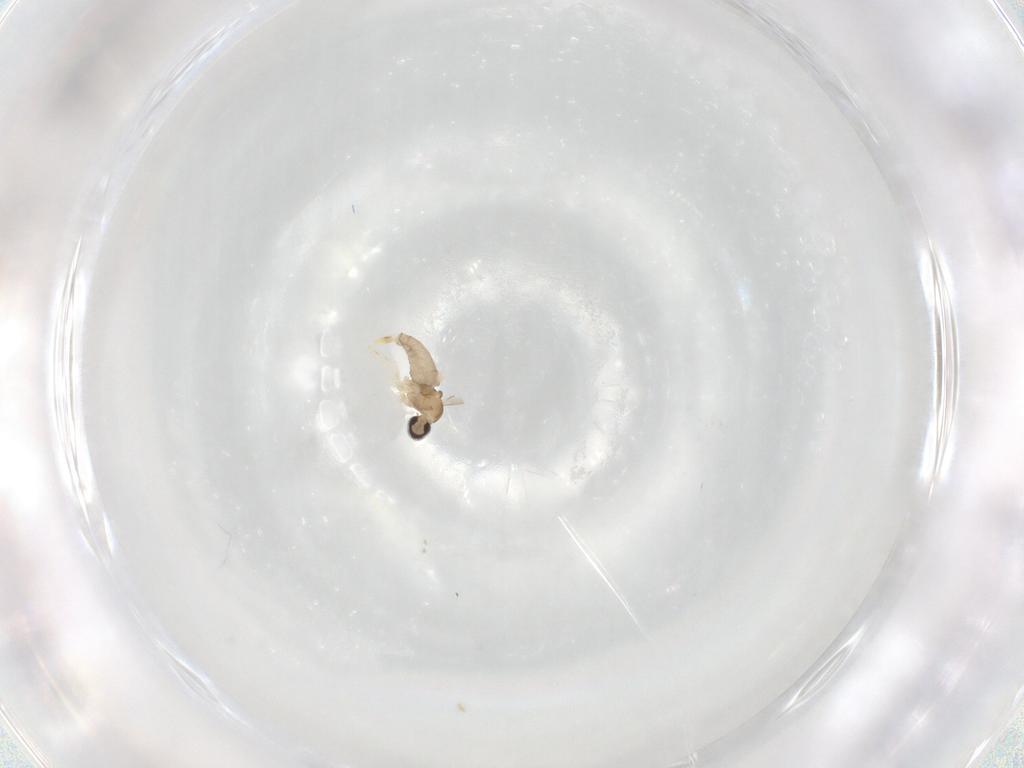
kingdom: Animalia
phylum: Arthropoda
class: Insecta
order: Diptera
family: Cecidomyiidae
